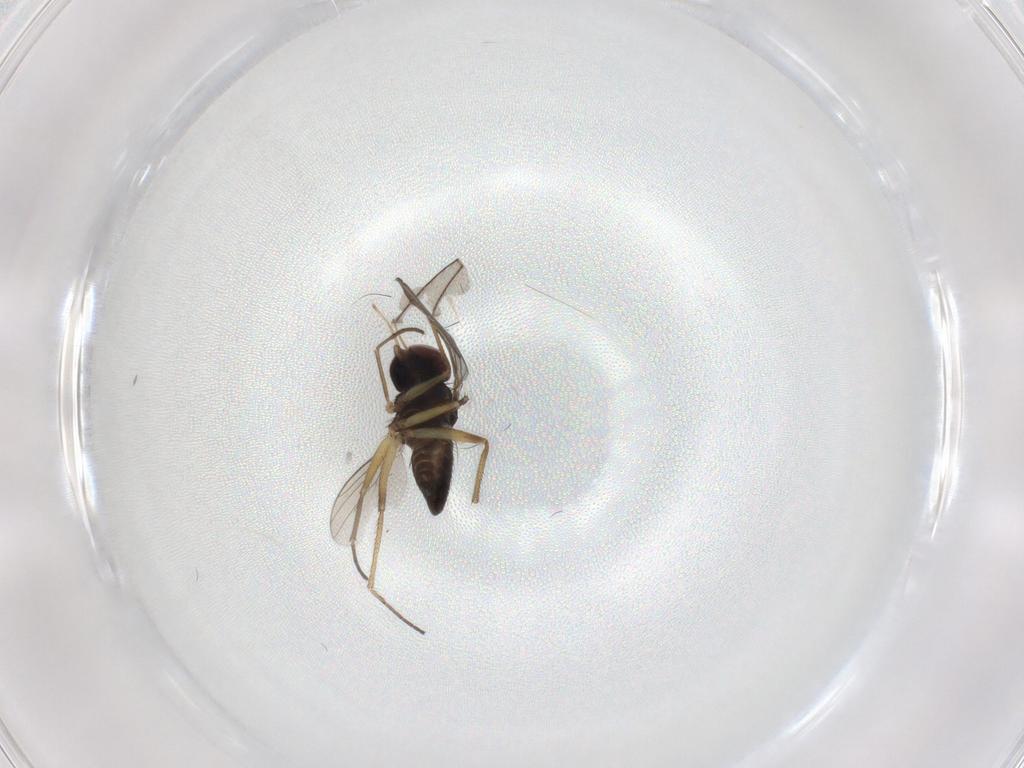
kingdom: Animalia
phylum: Arthropoda
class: Insecta
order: Diptera
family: Dolichopodidae
